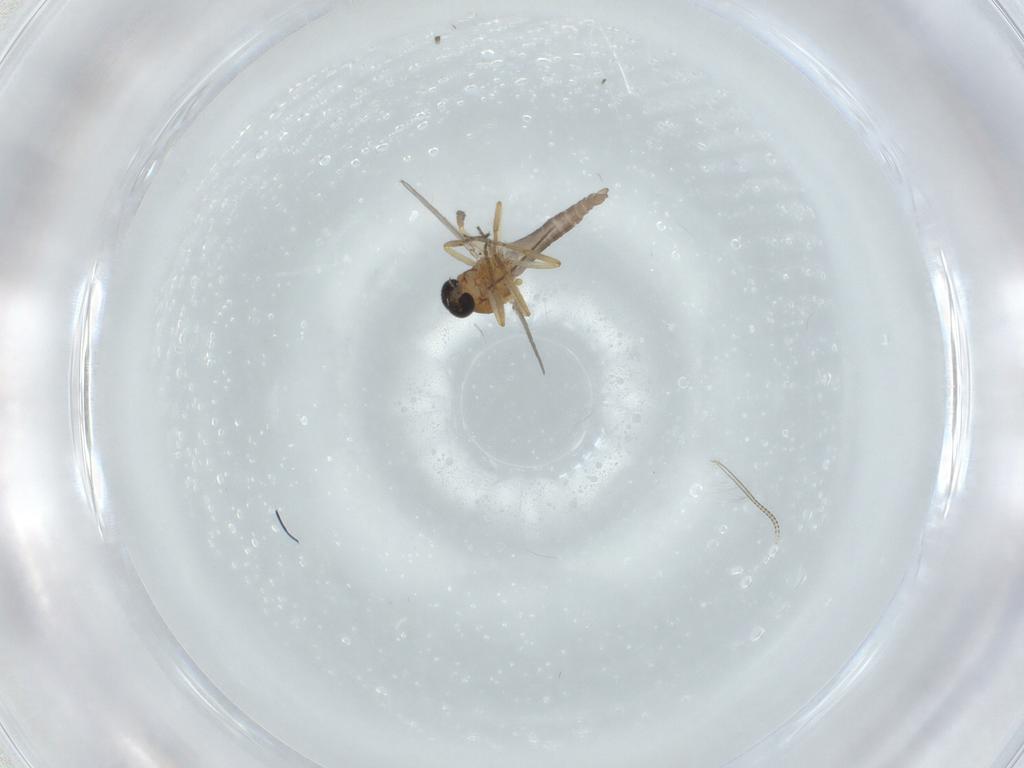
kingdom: Animalia
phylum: Arthropoda
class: Insecta
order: Diptera
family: Ceratopogonidae
